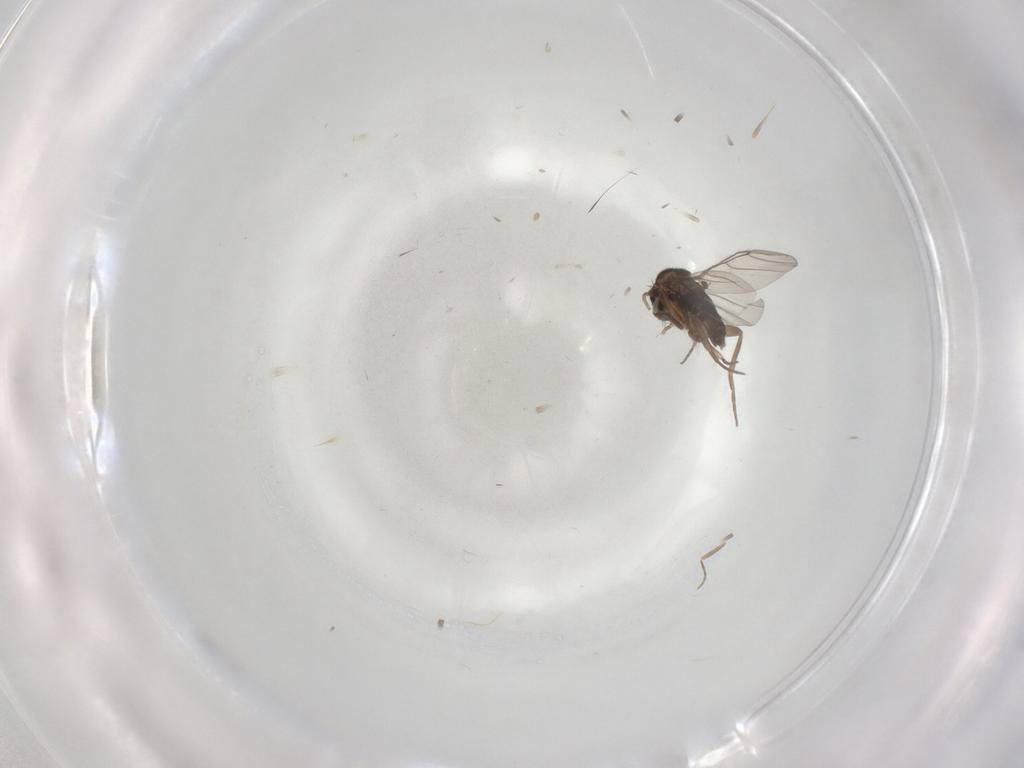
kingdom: Animalia
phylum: Arthropoda
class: Insecta
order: Diptera
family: Phoridae
